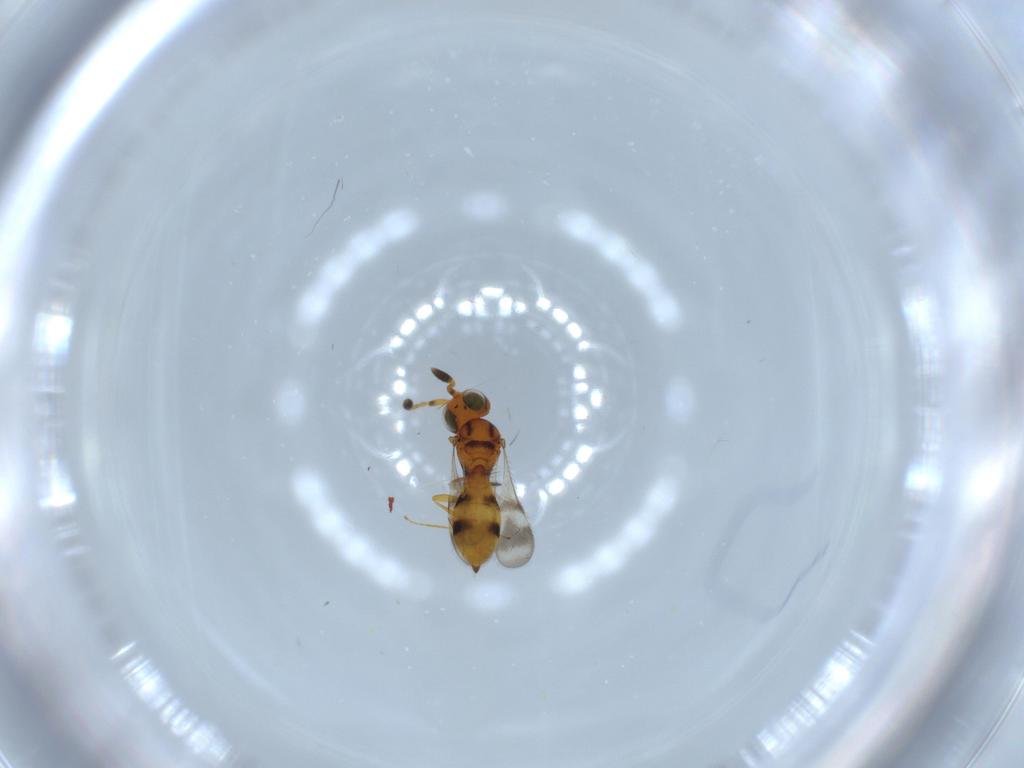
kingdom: Animalia
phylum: Arthropoda
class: Insecta
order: Hymenoptera
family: Scelionidae
